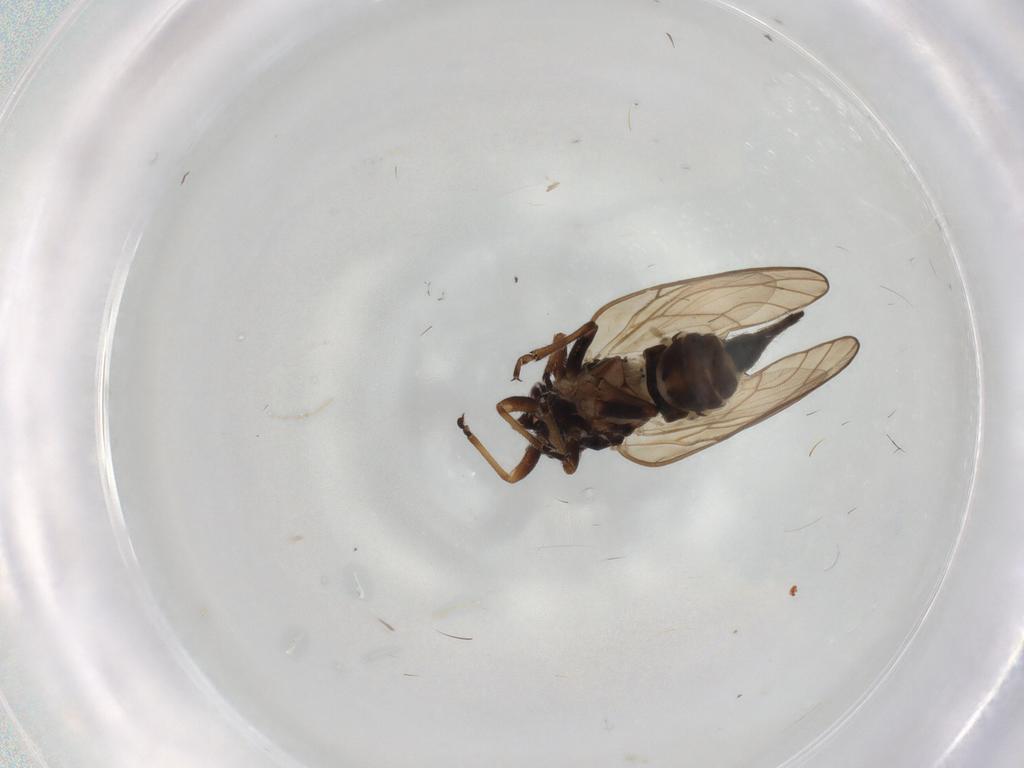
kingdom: Animalia
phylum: Arthropoda
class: Insecta
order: Hemiptera
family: Psyllidae
